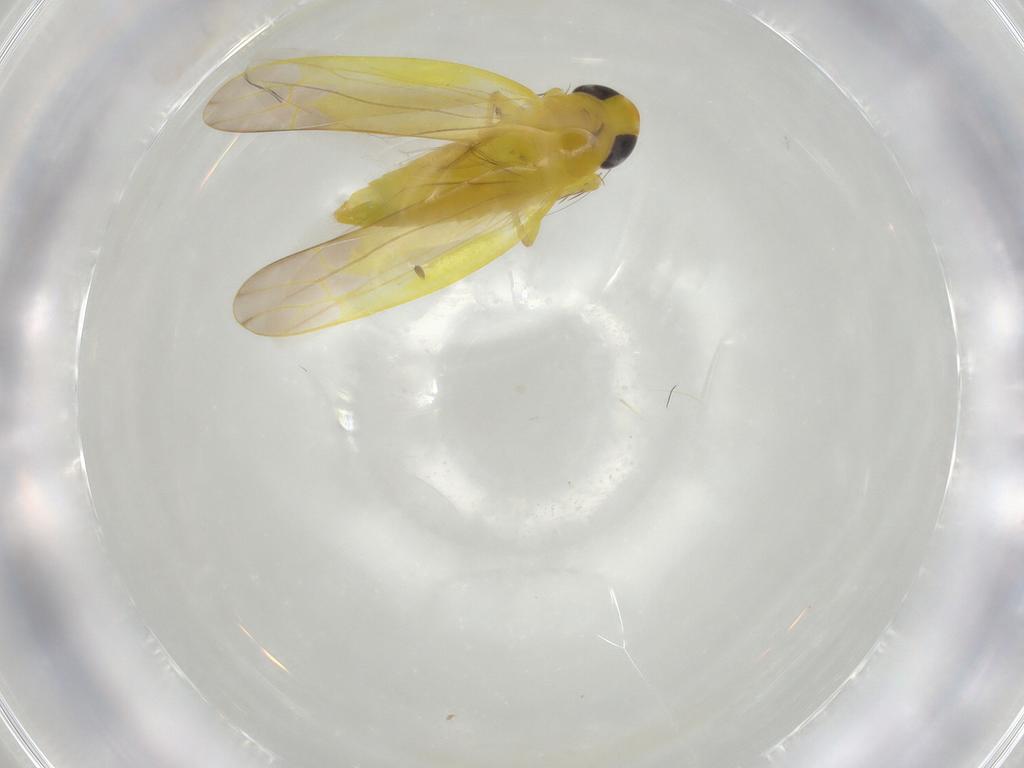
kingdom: Animalia
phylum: Arthropoda
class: Insecta
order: Hemiptera
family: Cicadellidae
